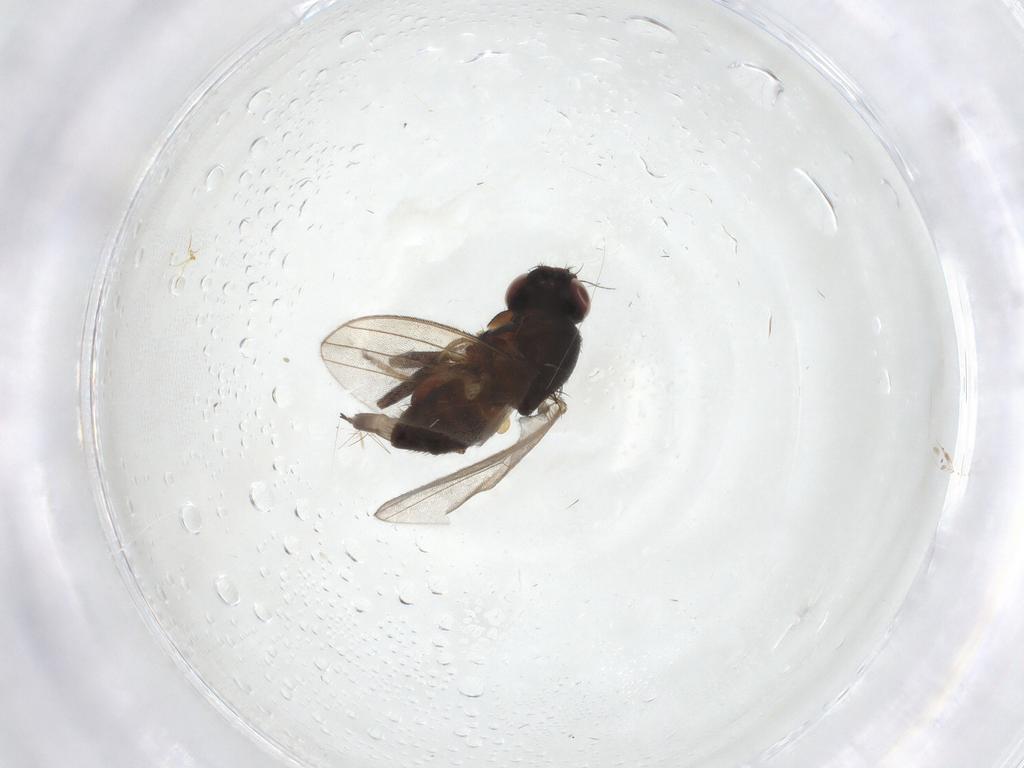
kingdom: Animalia
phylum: Arthropoda
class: Insecta
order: Diptera
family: Milichiidae
